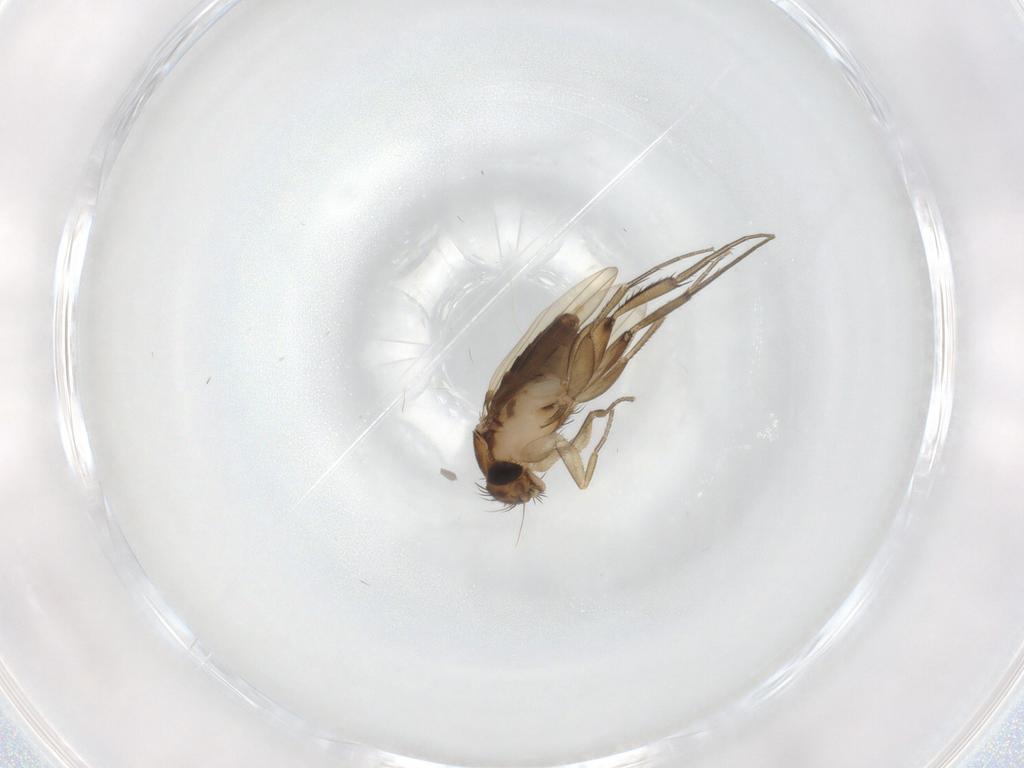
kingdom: Animalia
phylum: Arthropoda
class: Insecta
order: Diptera
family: Phoridae
